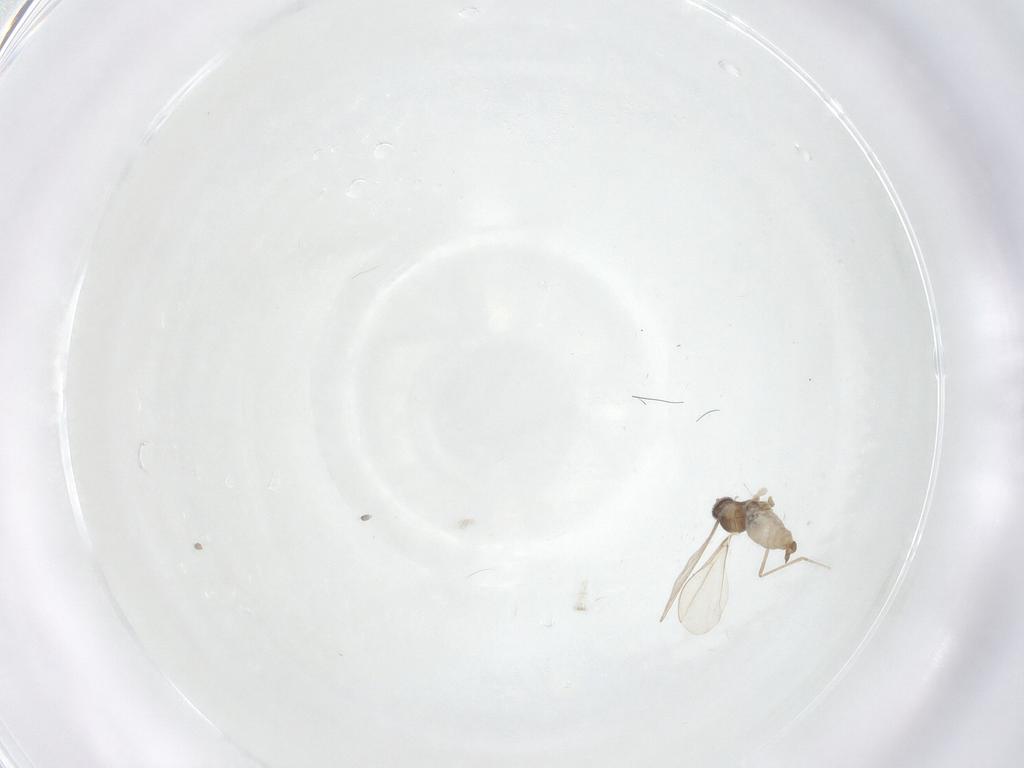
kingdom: Animalia
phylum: Arthropoda
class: Insecta
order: Diptera
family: Cecidomyiidae
